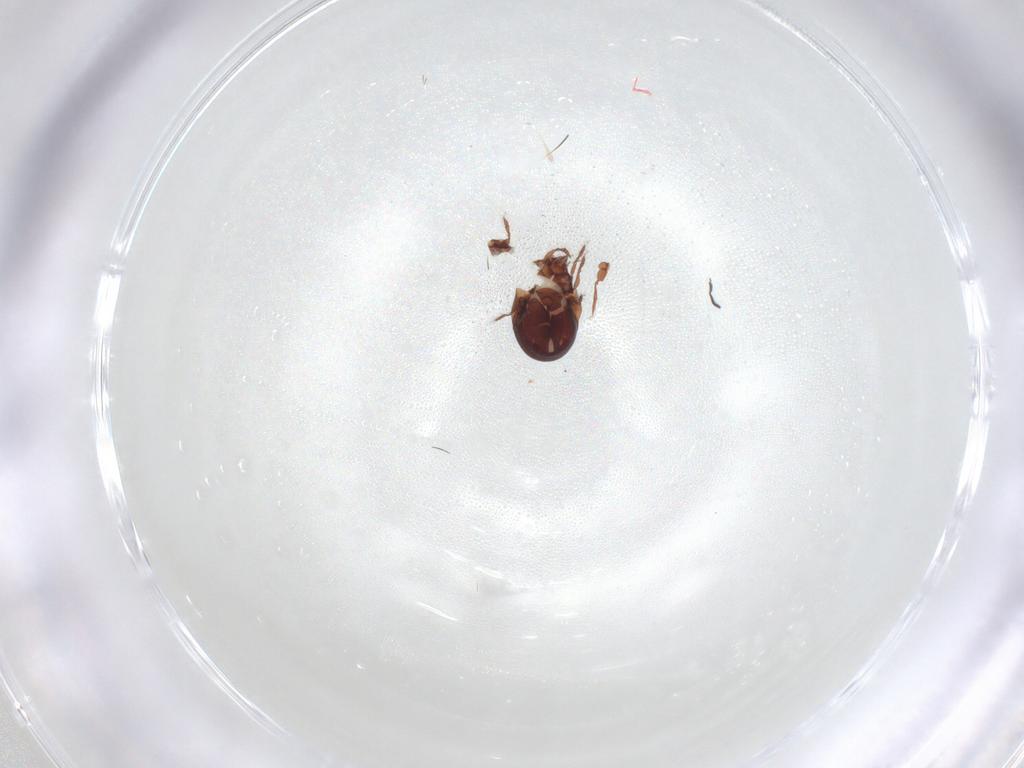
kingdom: Animalia
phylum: Arthropoda
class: Arachnida
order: Sarcoptiformes
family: Humerobatidae
